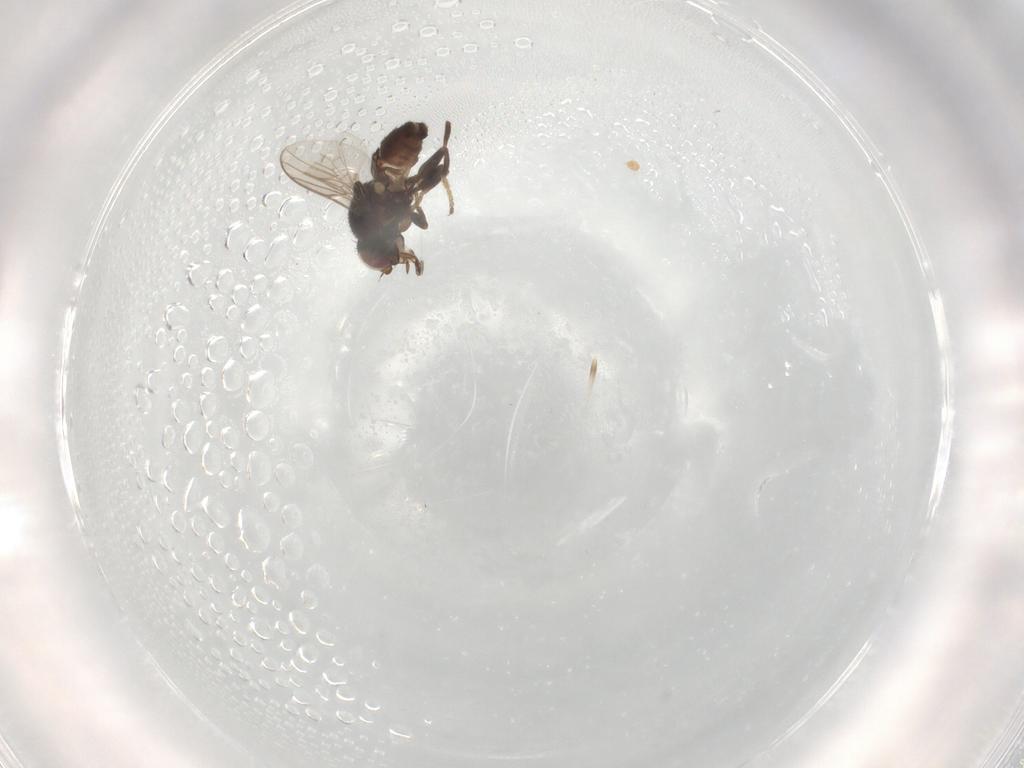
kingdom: Animalia
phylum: Arthropoda
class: Insecta
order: Diptera
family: Chloropidae
